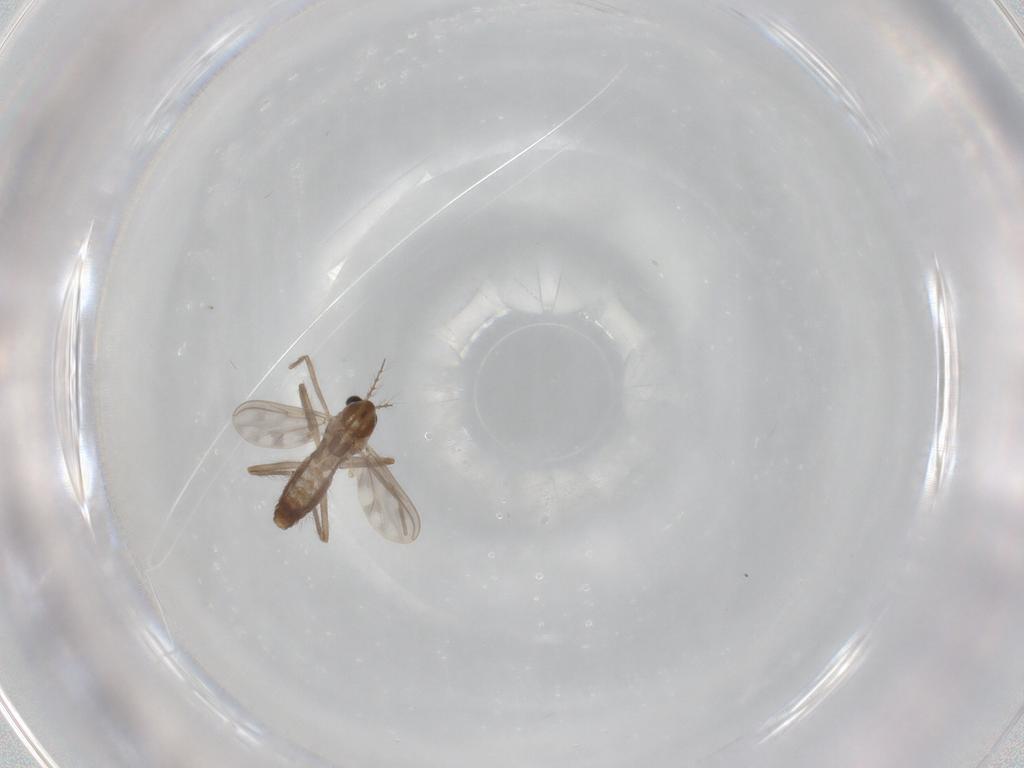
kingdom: Animalia
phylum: Arthropoda
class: Insecta
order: Diptera
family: Chironomidae
